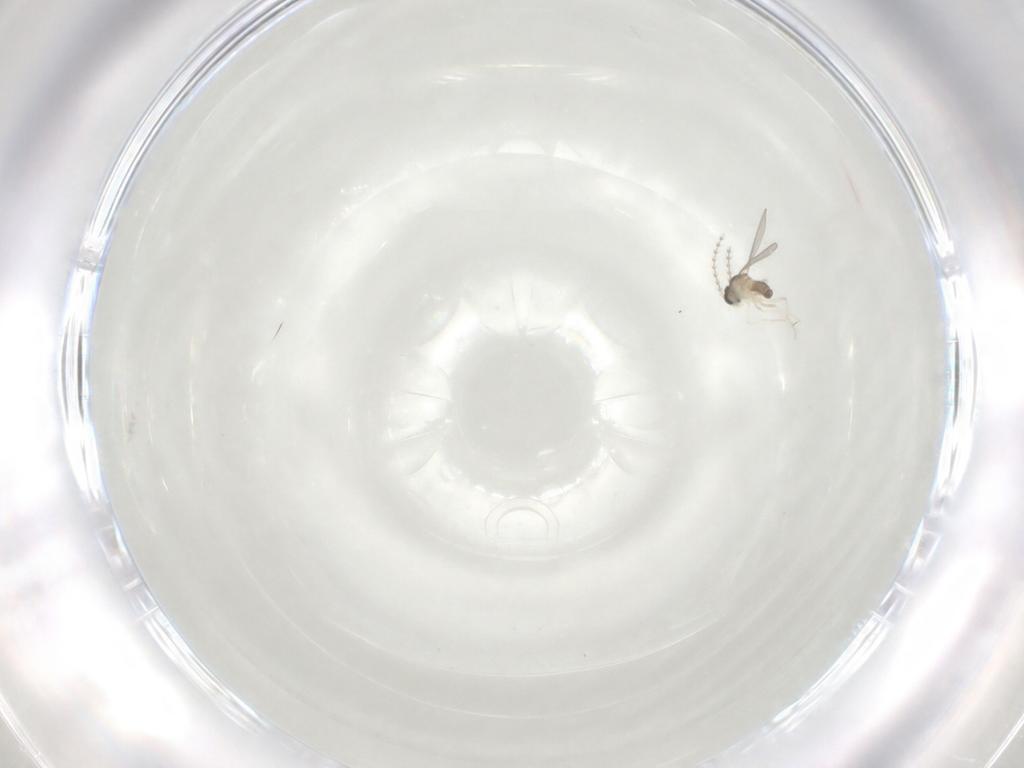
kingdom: Animalia
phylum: Arthropoda
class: Insecta
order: Diptera
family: Cecidomyiidae
